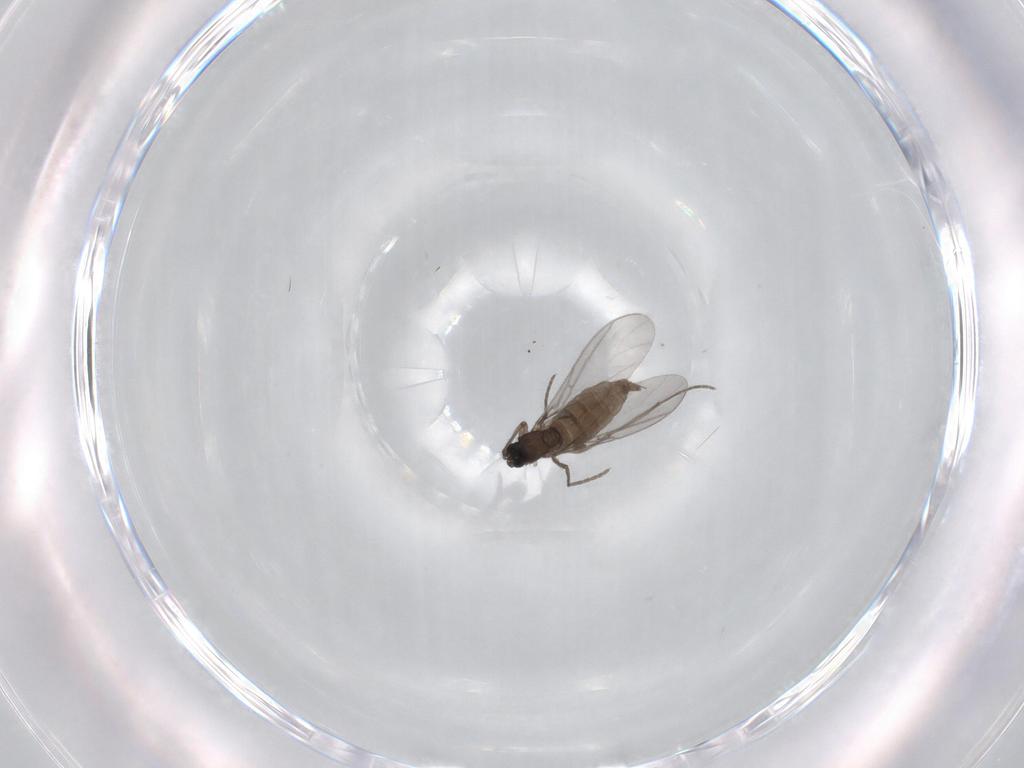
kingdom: Animalia
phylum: Arthropoda
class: Insecta
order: Diptera
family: Sciaridae
